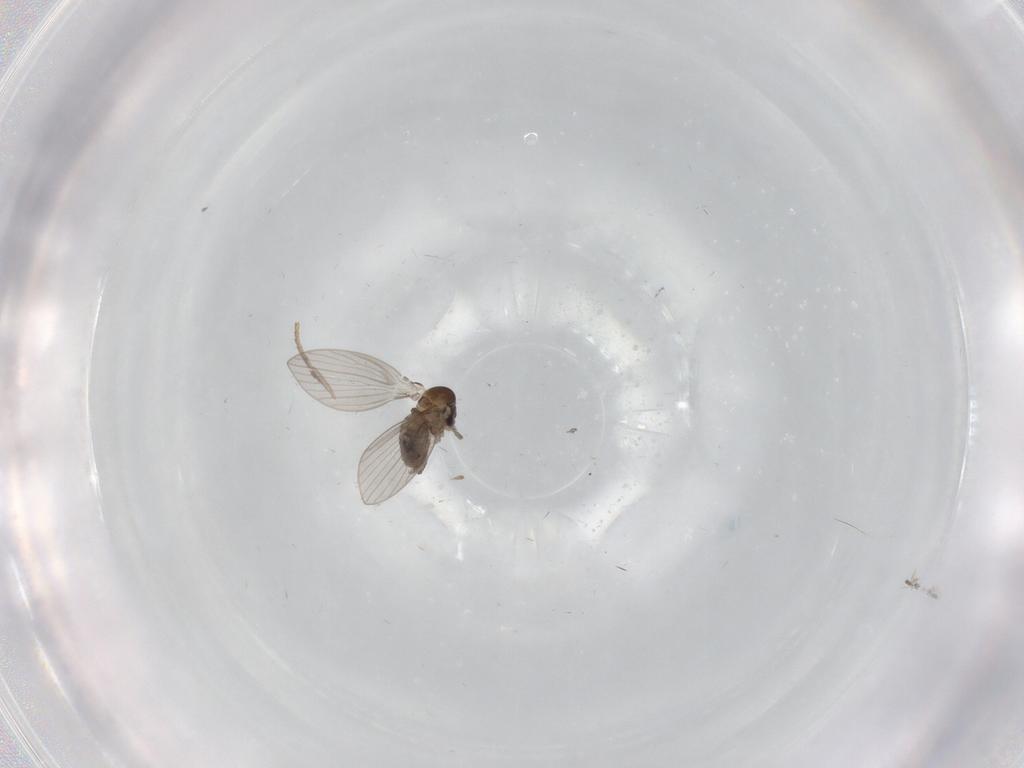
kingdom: Animalia
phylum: Arthropoda
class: Insecta
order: Diptera
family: Psychodidae
